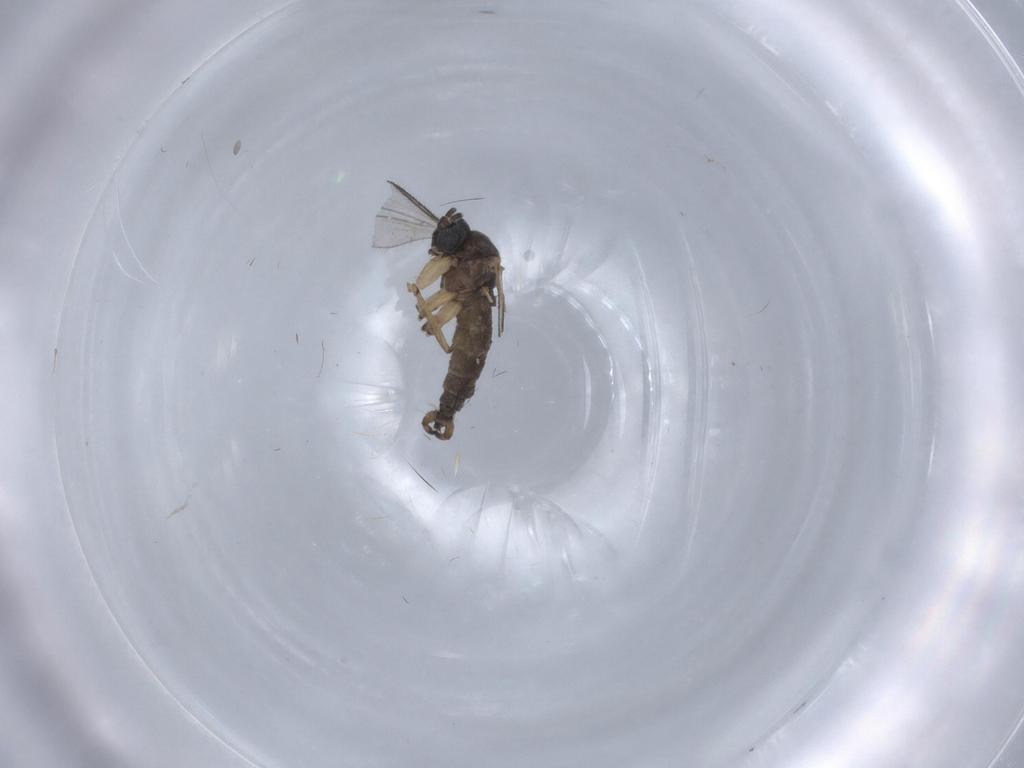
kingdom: Animalia
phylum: Arthropoda
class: Insecta
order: Diptera
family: Sciaridae
